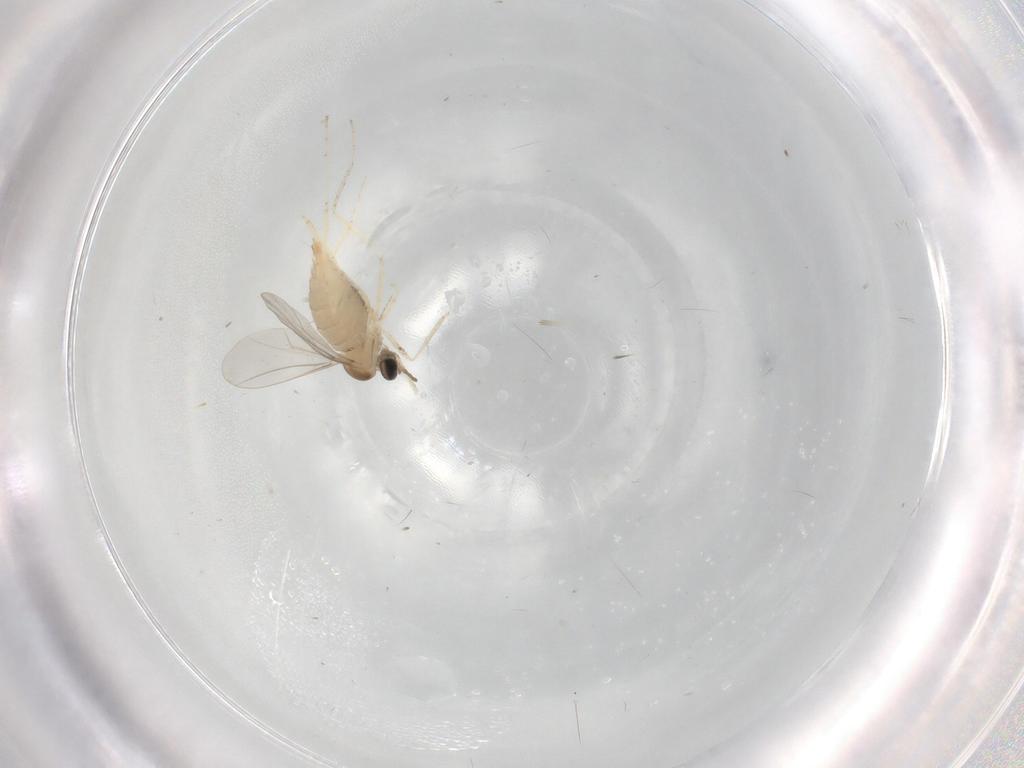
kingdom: Animalia
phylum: Arthropoda
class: Insecta
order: Diptera
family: Cecidomyiidae
